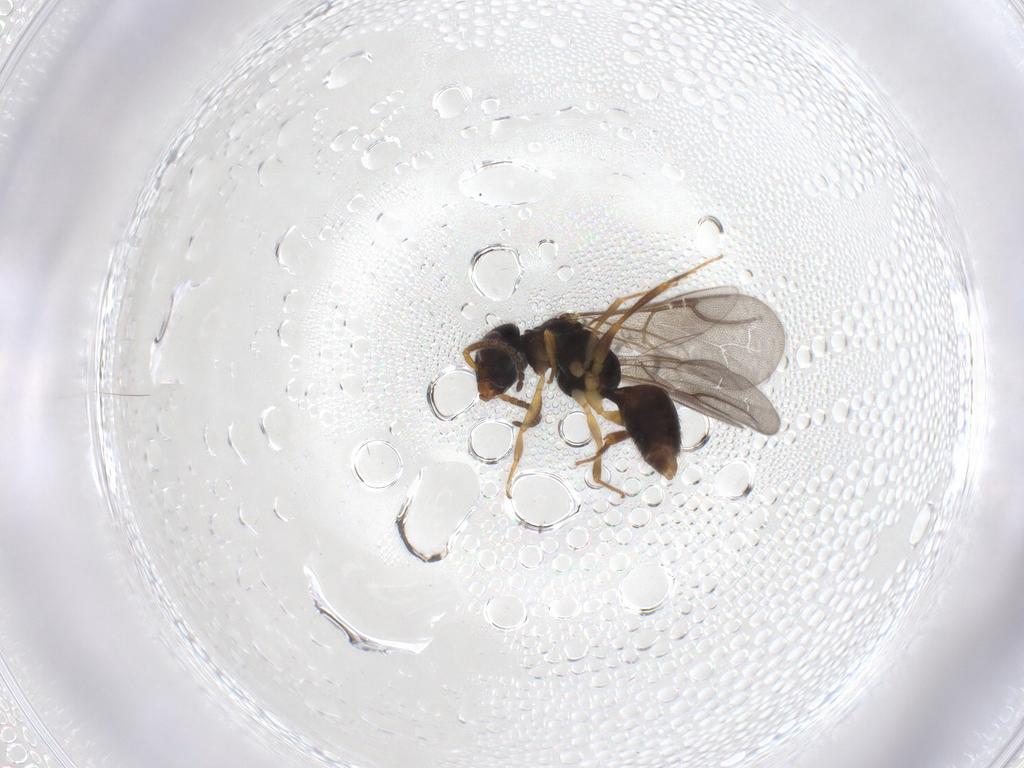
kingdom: Animalia
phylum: Arthropoda
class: Insecta
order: Hymenoptera
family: Bethylidae
